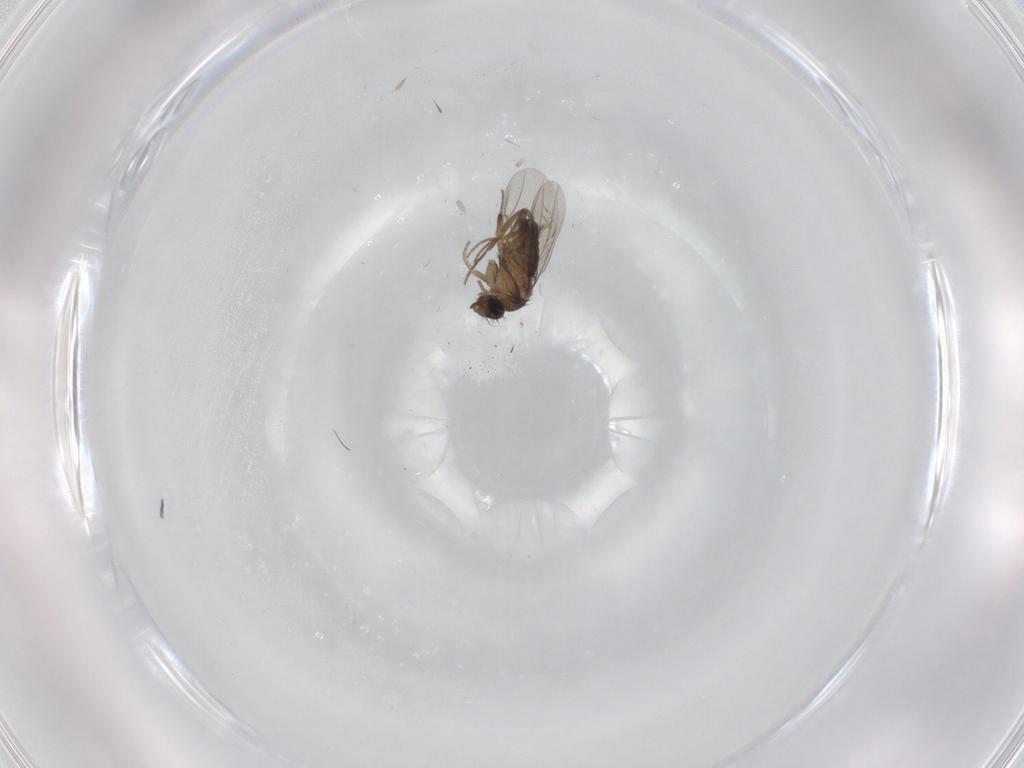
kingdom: Animalia
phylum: Arthropoda
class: Insecta
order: Diptera
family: Phoridae
